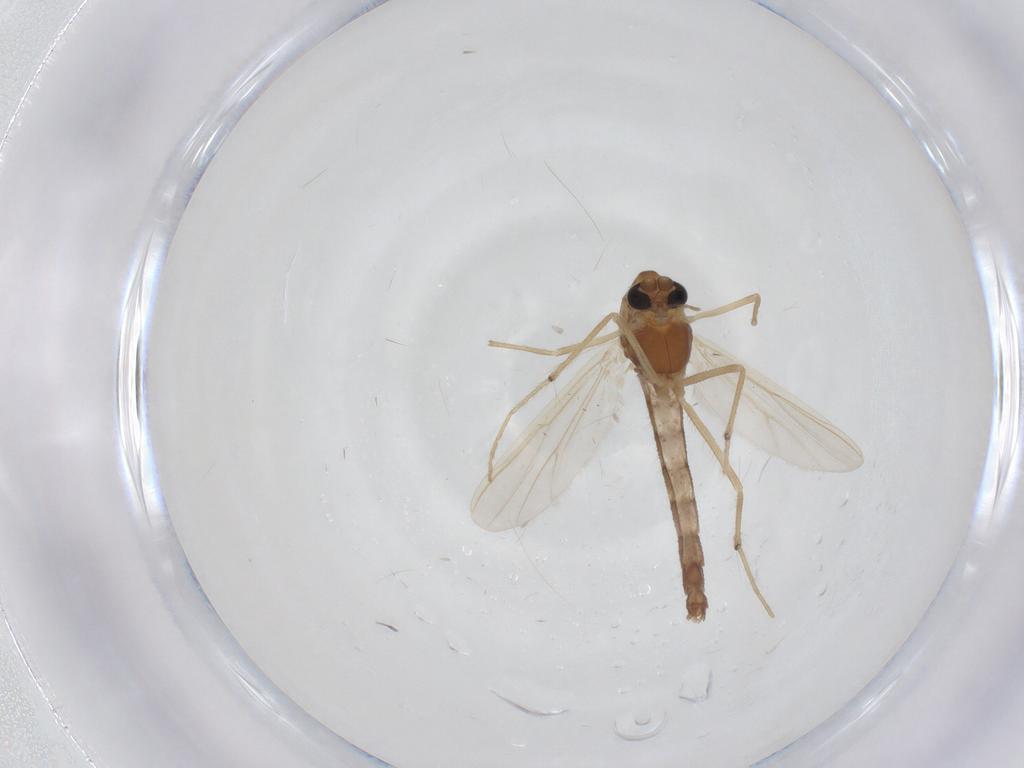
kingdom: Animalia
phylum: Arthropoda
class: Insecta
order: Diptera
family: Chironomidae
